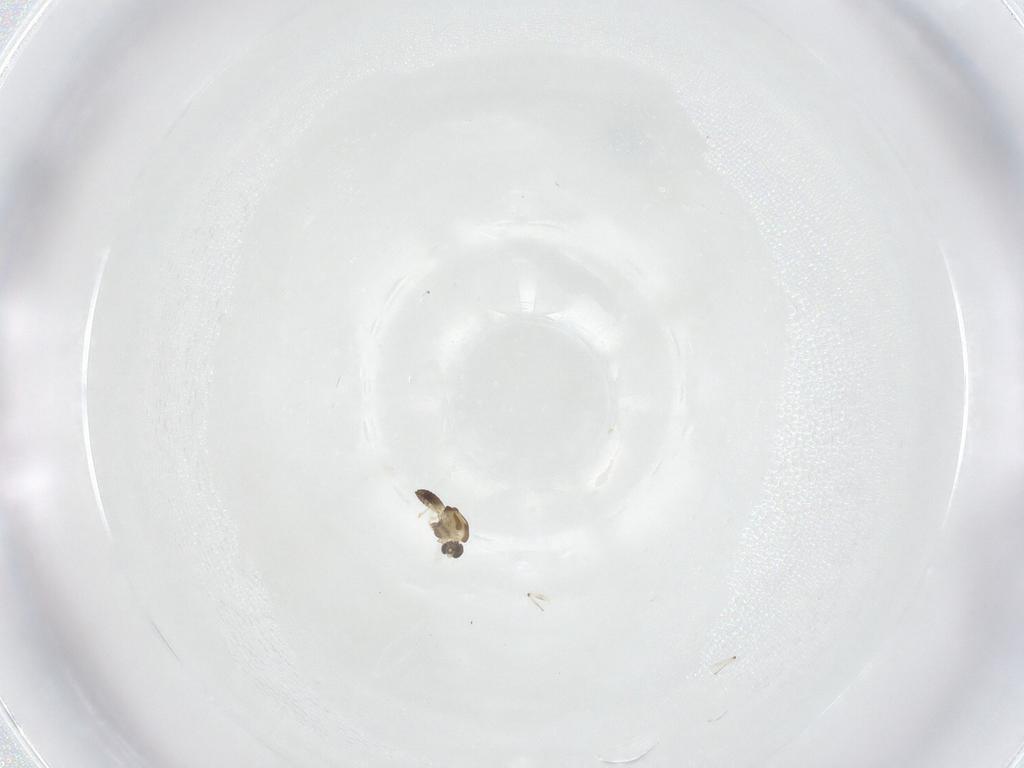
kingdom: Animalia
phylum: Arthropoda
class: Insecta
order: Diptera
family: Chironomidae
